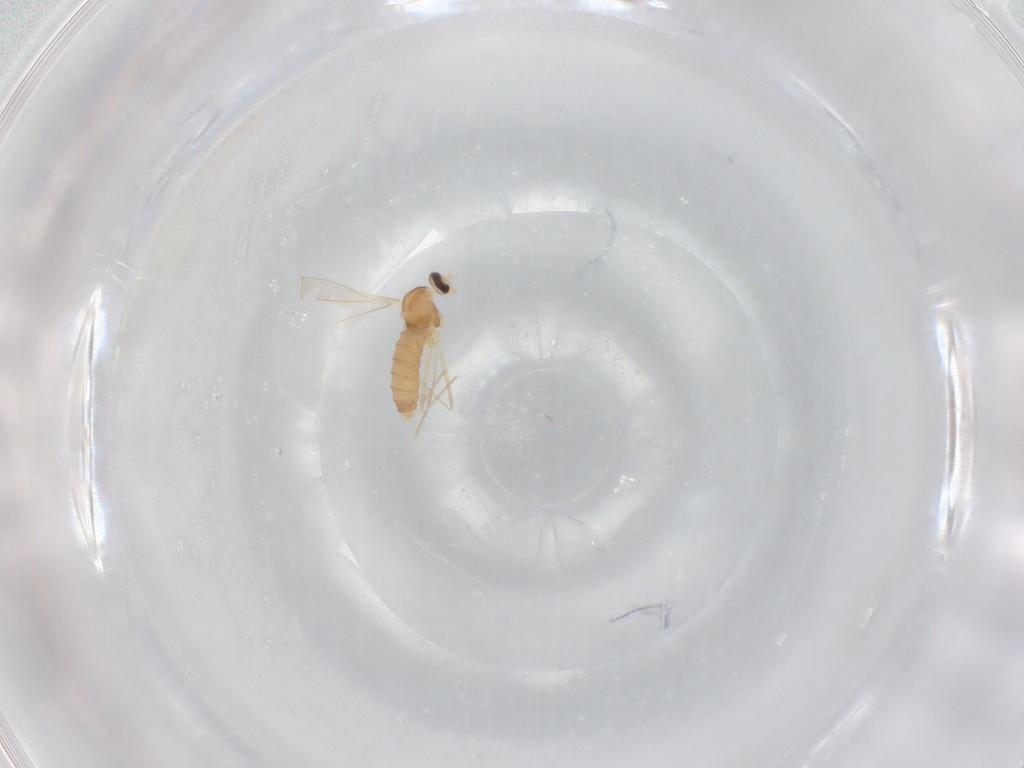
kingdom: Animalia
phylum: Arthropoda
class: Insecta
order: Diptera
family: Cecidomyiidae
